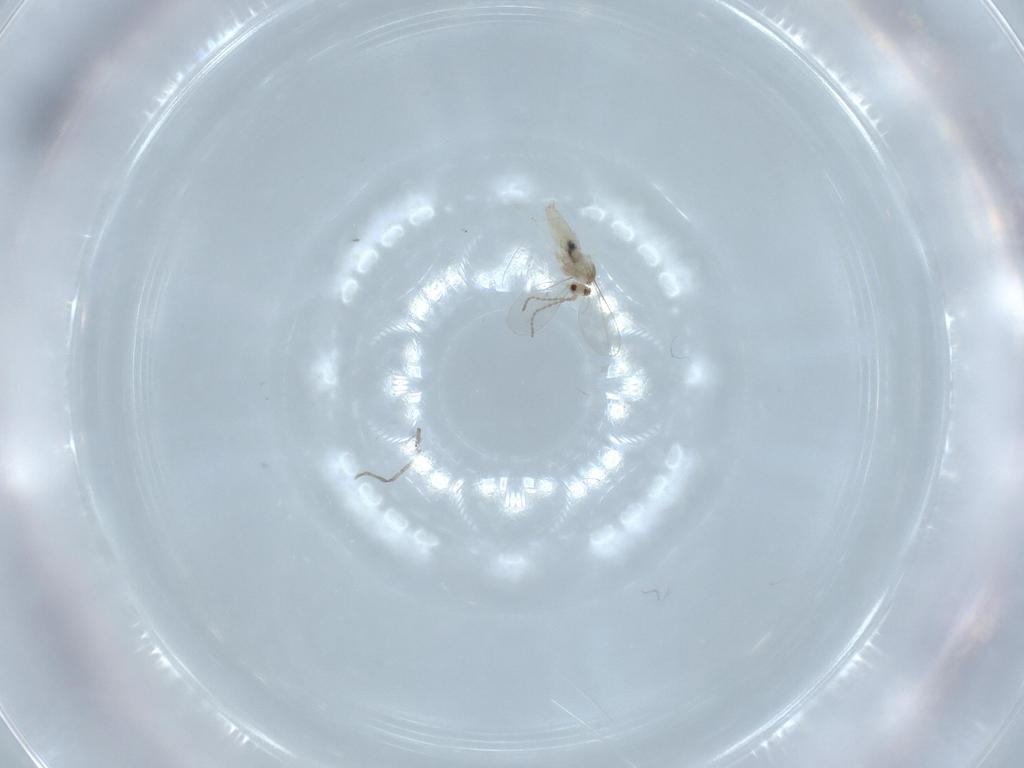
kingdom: Animalia
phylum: Arthropoda
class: Insecta
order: Diptera
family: Cecidomyiidae
